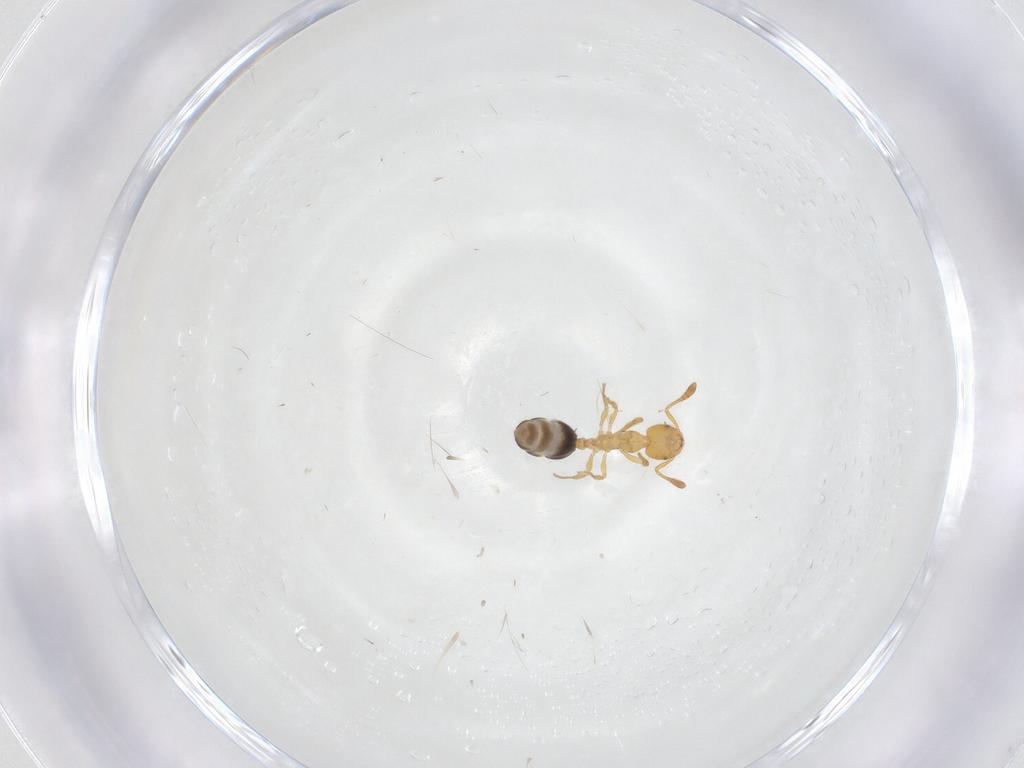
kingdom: Animalia
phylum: Arthropoda
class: Insecta
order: Hymenoptera
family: Formicidae
